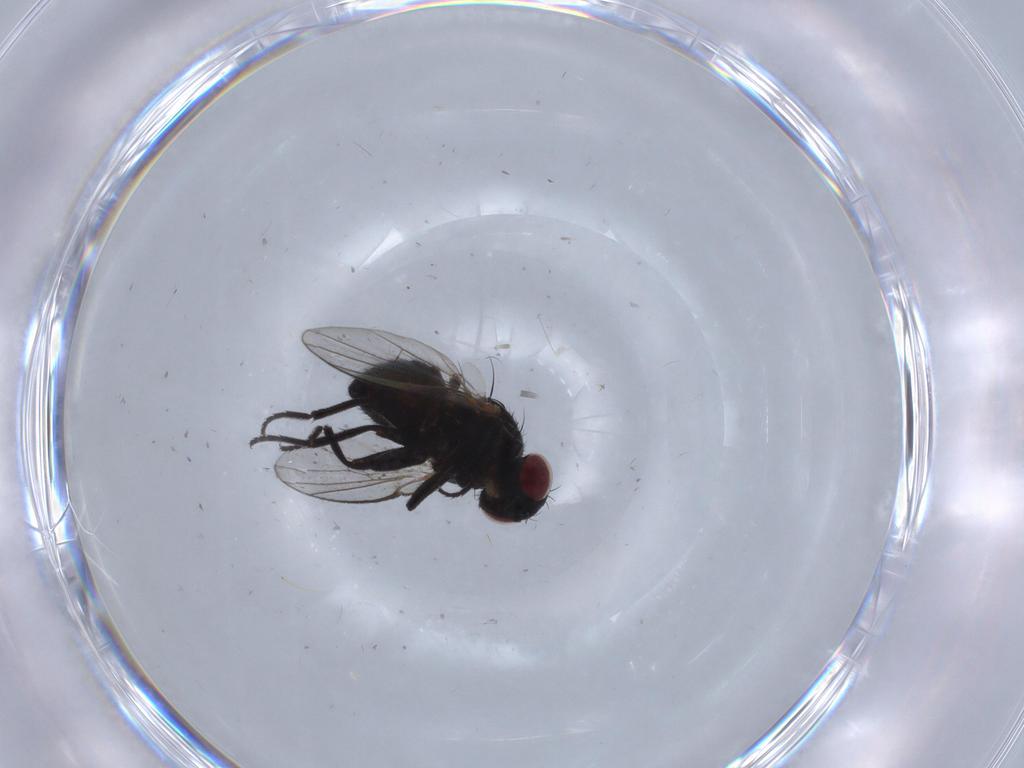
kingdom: Animalia
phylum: Arthropoda
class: Insecta
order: Diptera
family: Agromyzidae
